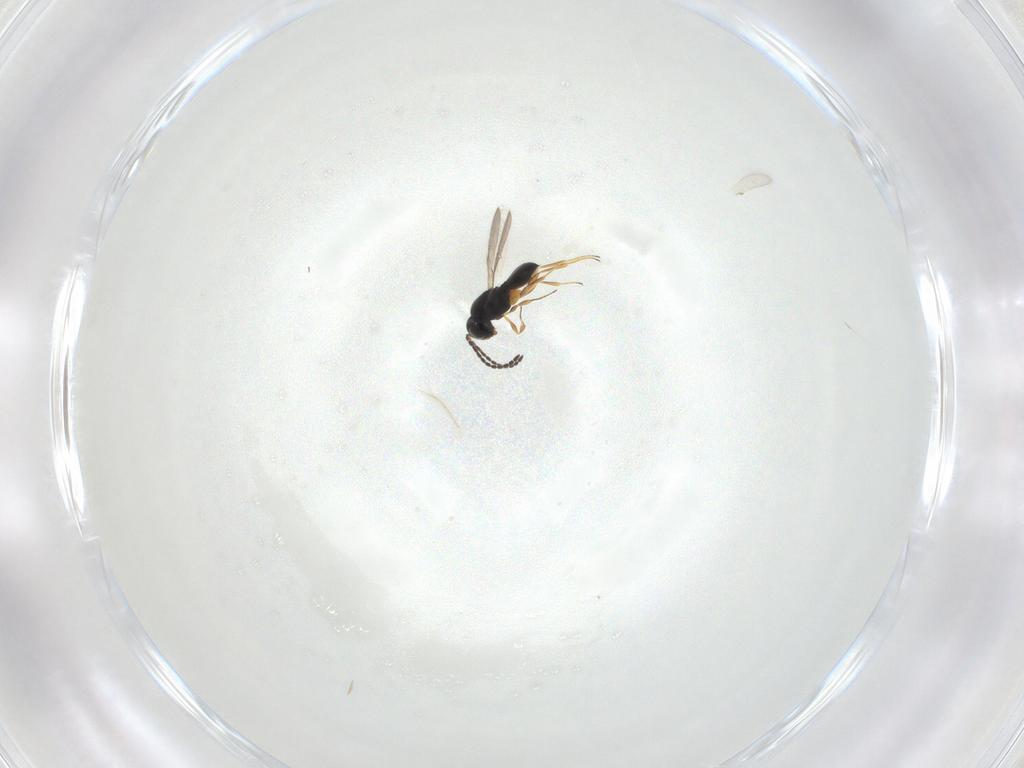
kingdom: Animalia
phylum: Arthropoda
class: Insecta
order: Hymenoptera
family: Scelionidae
